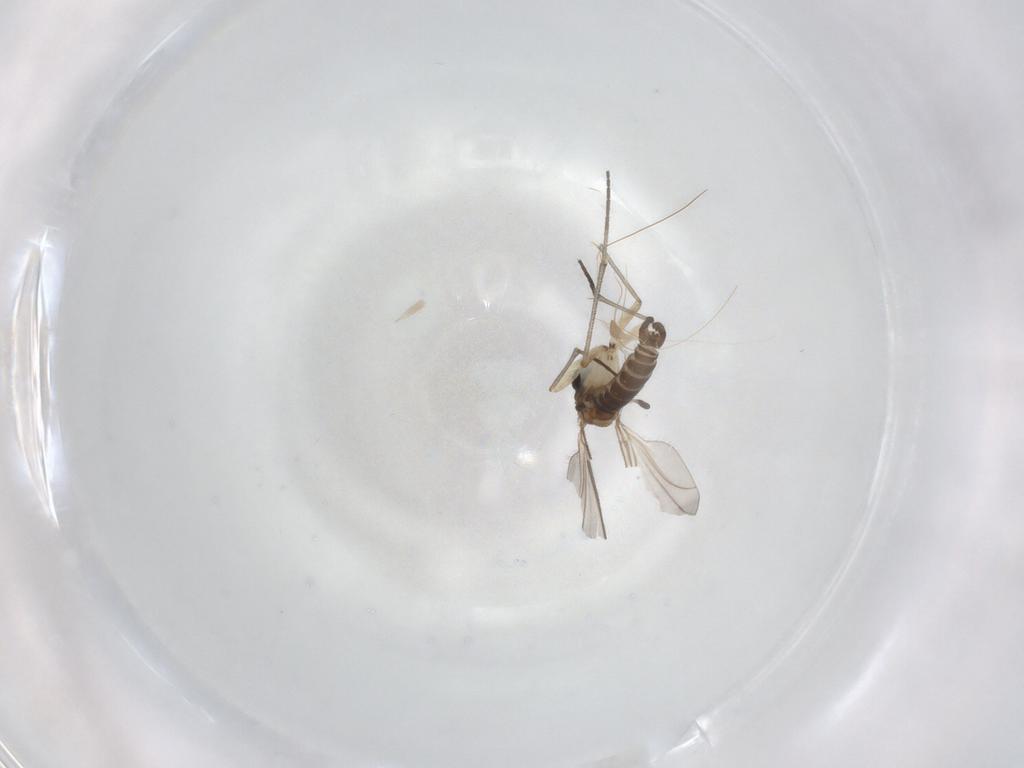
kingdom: Animalia
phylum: Arthropoda
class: Insecta
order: Diptera
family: Sciaridae
